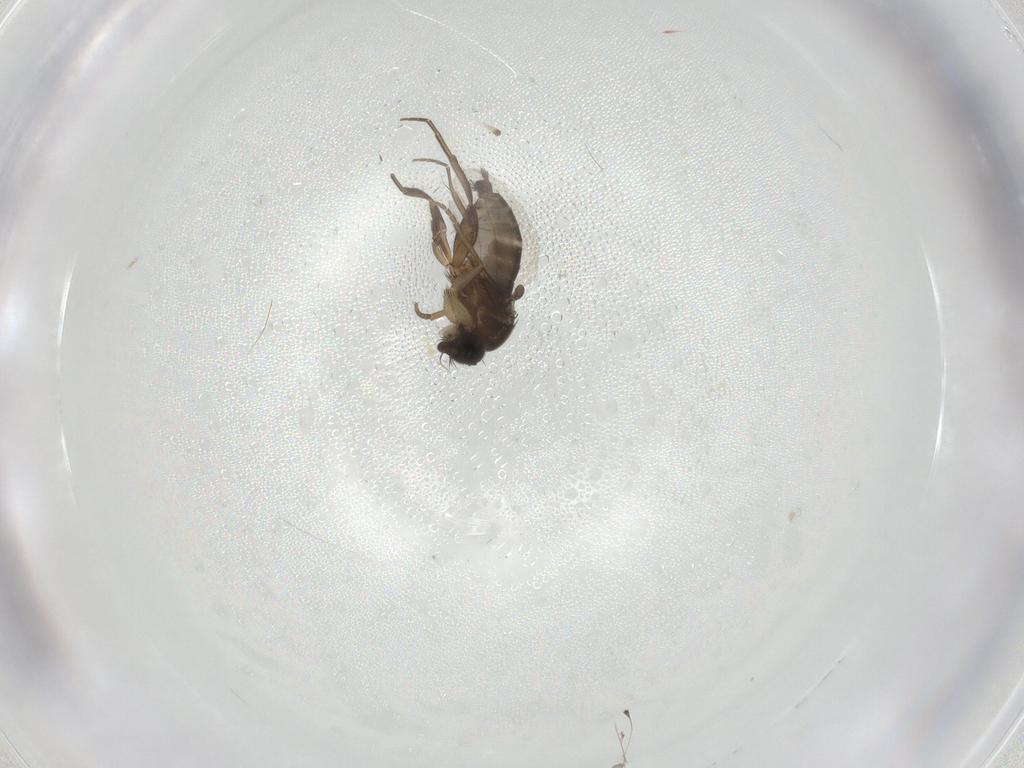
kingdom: Animalia
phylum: Arthropoda
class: Insecta
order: Diptera
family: Phoridae
